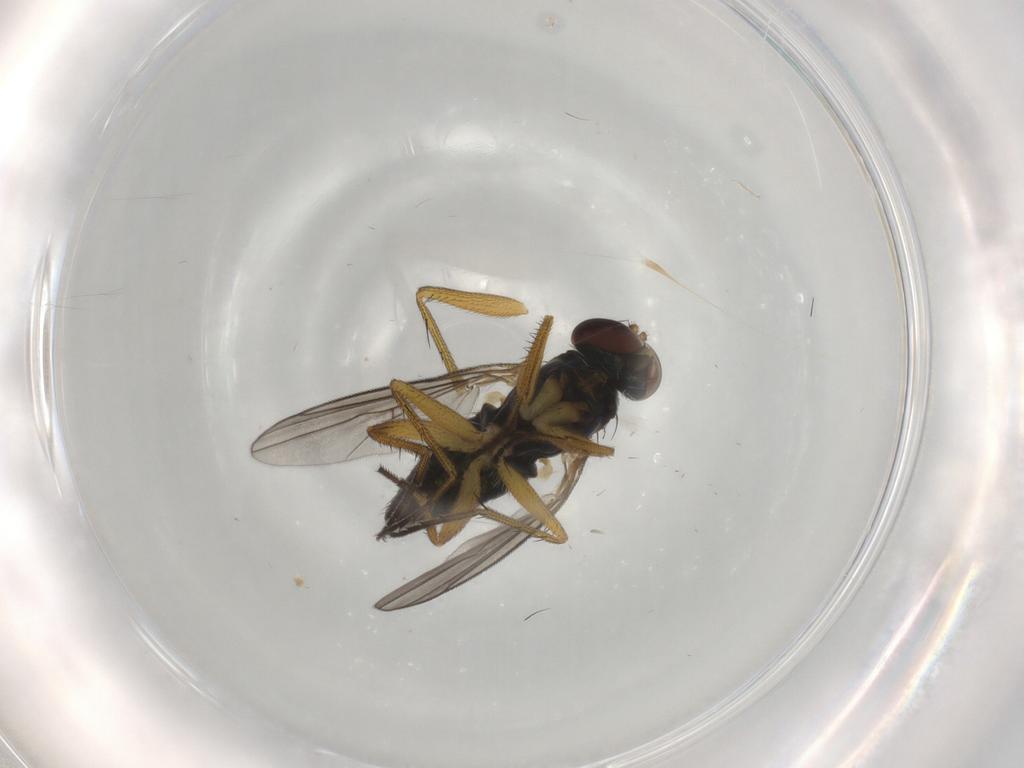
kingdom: Animalia
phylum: Arthropoda
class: Insecta
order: Diptera
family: Dolichopodidae
